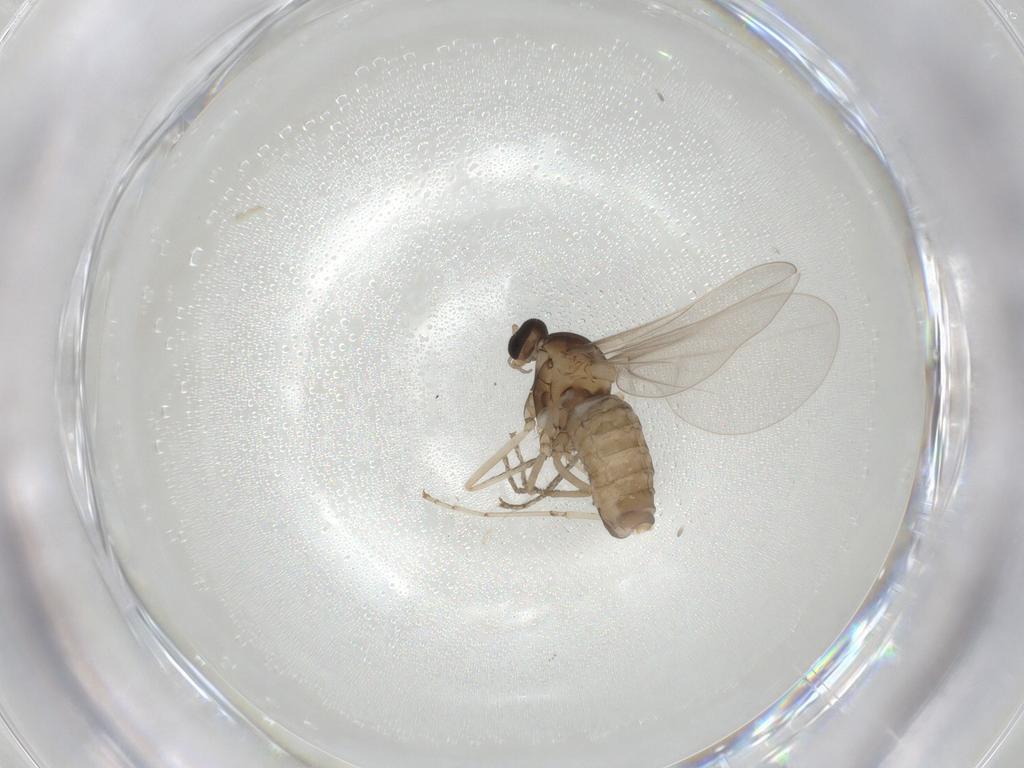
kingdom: Animalia
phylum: Arthropoda
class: Insecta
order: Diptera
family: Cecidomyiidae
